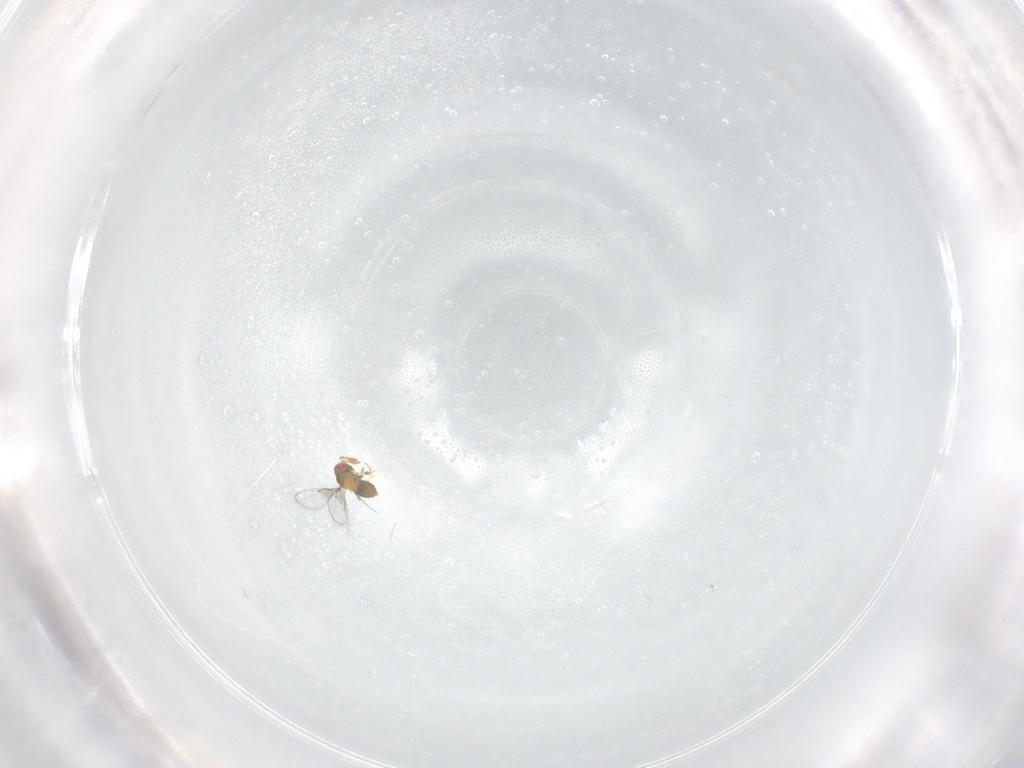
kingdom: Animalia
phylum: Arthropoda
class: Insecta
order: Hymenoptera
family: Trichogrammatidae
